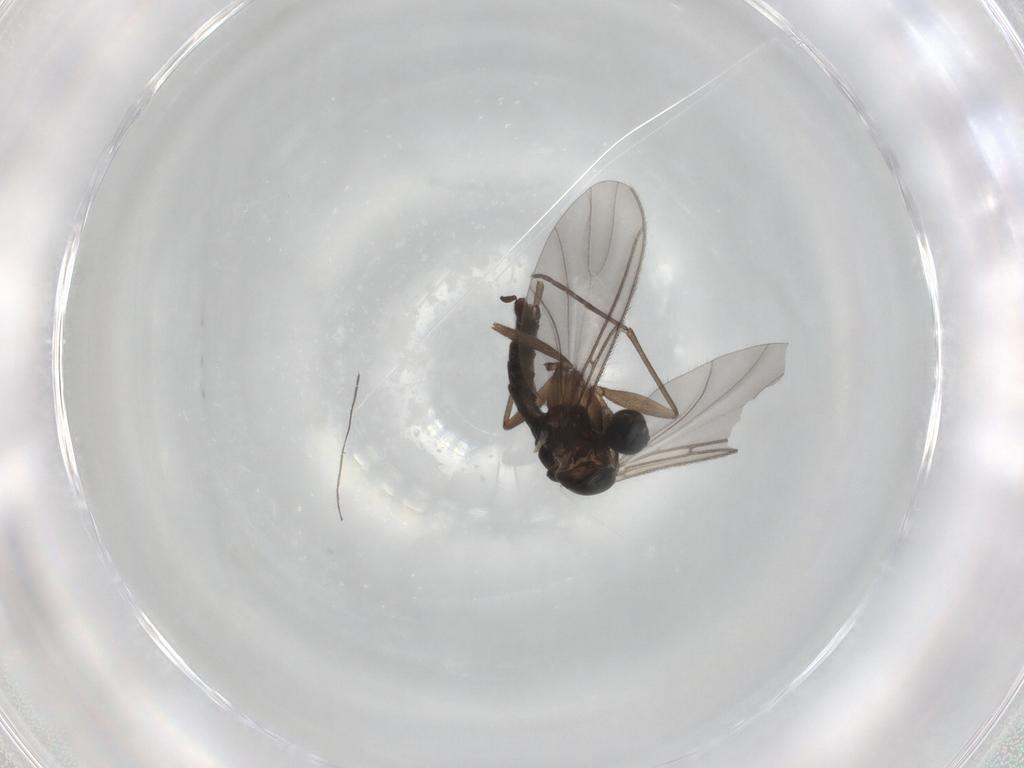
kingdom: Animalia
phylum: Arthropoda
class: Insecta
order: Diptera
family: Sciaridae
